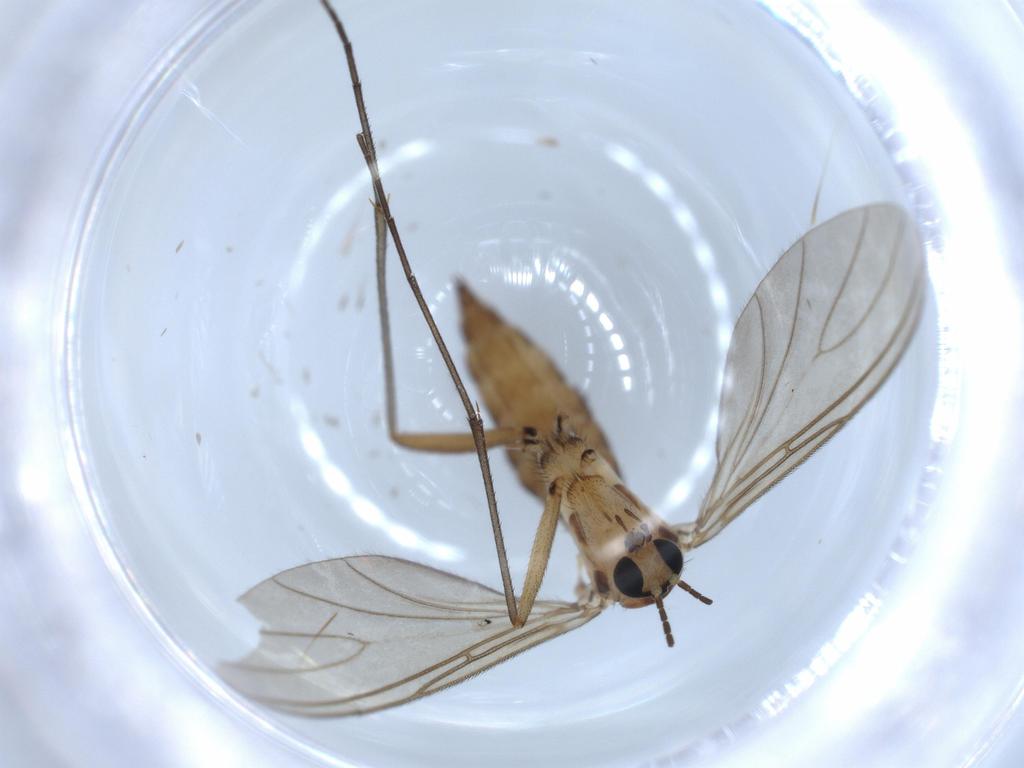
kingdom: Animalia
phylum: Arthropoda
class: Insecta
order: Diptera
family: Sciaridae
